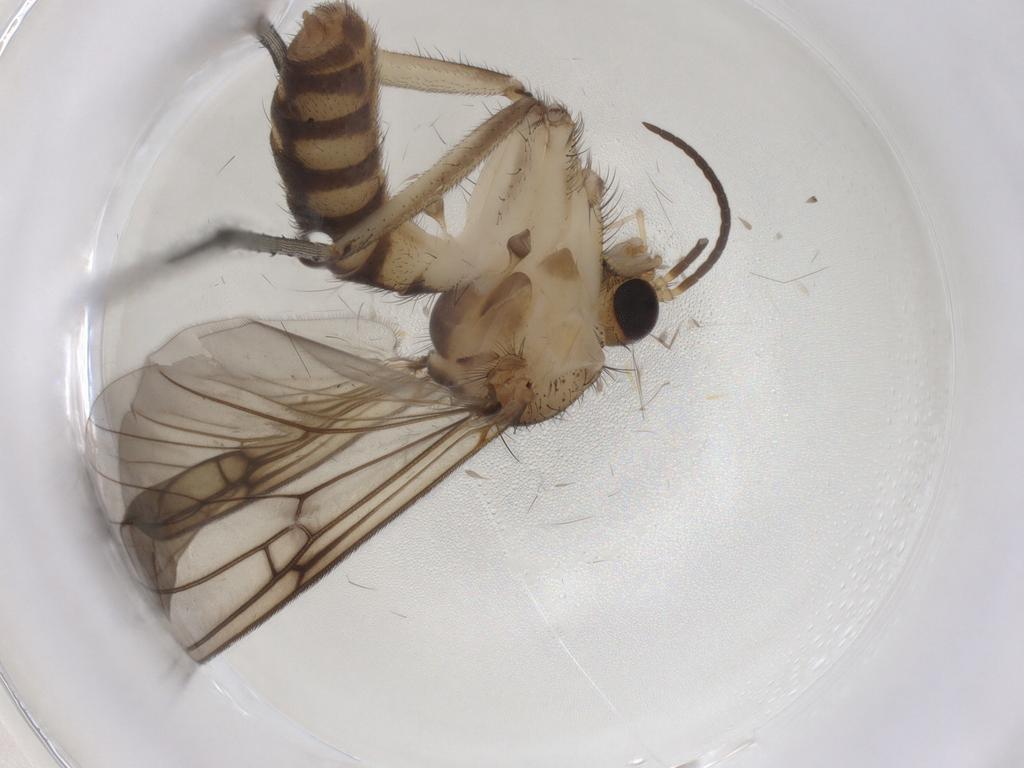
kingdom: Animalia
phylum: Arthropoda
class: Insecta
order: Diptera
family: Mycetophilidae
